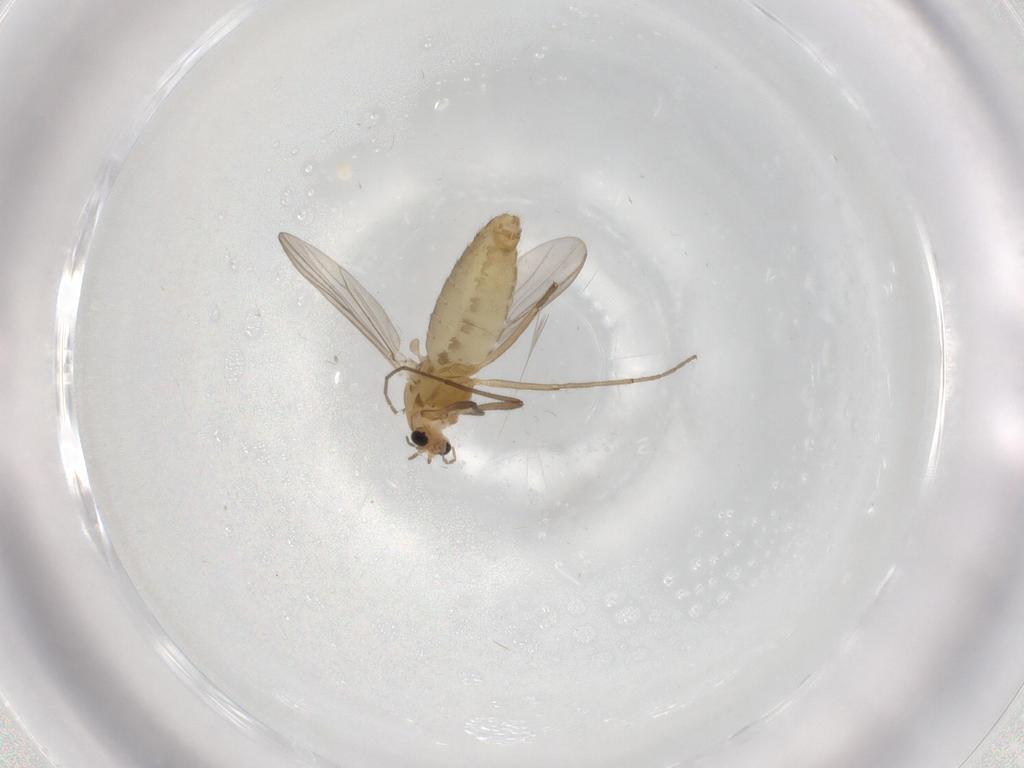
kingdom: Animalia
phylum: Arthropoda
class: Insecta
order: Diptera
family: Chironomidae
